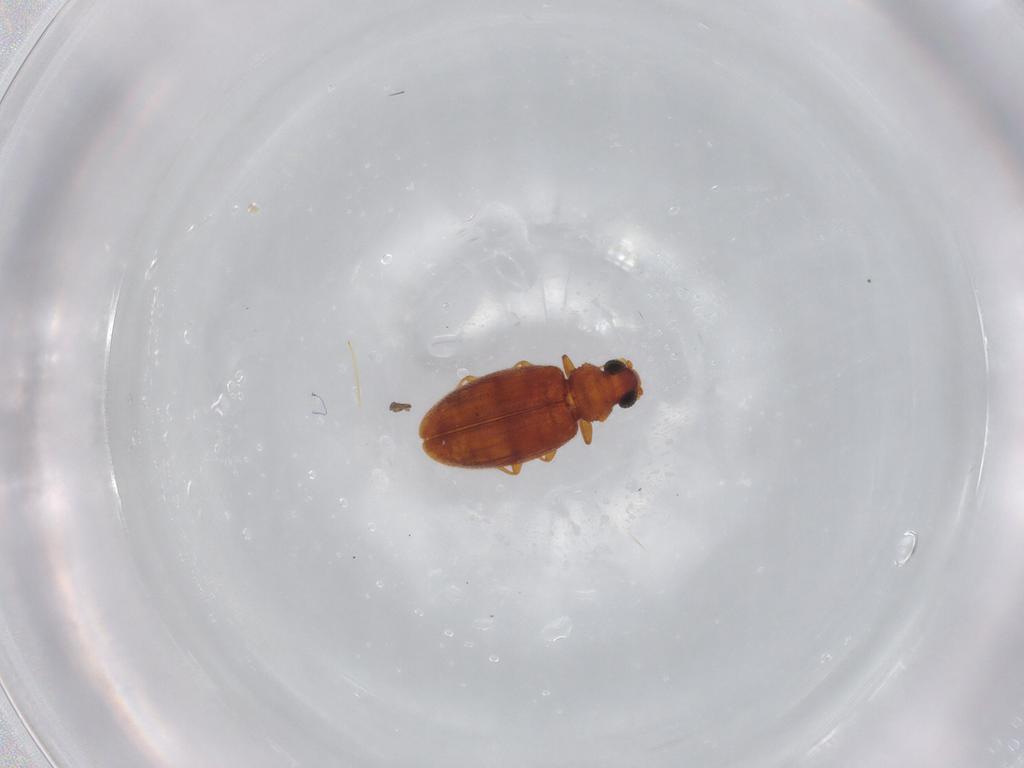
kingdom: Animalia
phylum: Arthropoda
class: Insecta
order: Coleoptera
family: Latridiidae
